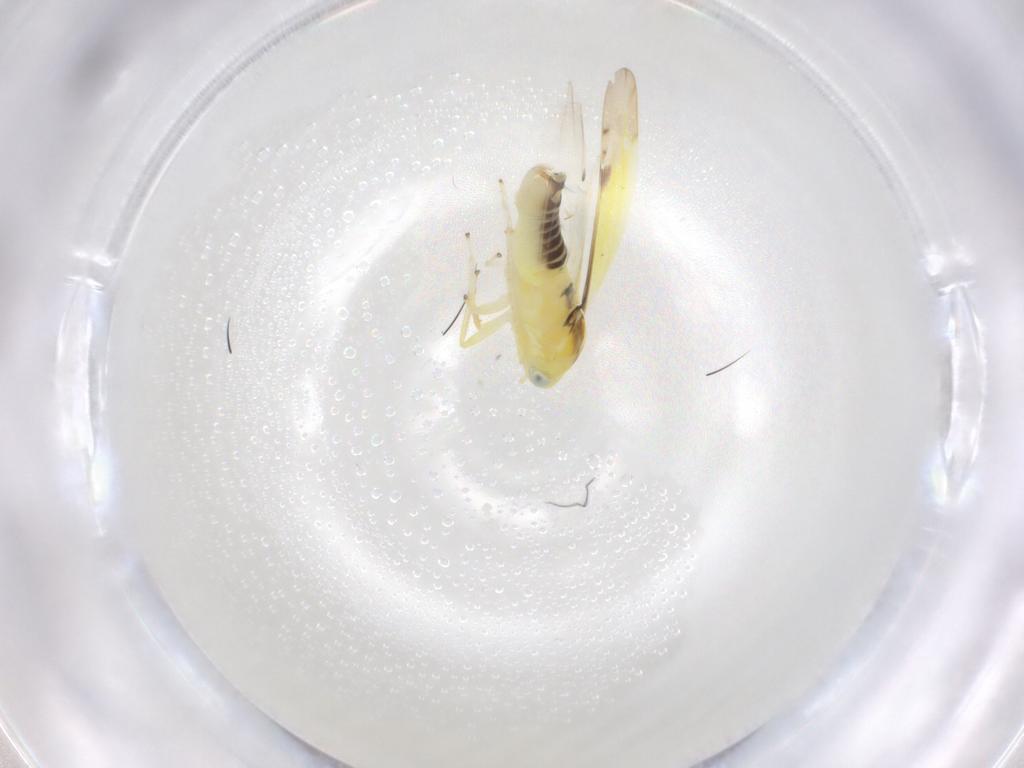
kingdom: Animalia
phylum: Arthropoda
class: Insecta
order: Hemiptera
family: Cicadellidae
